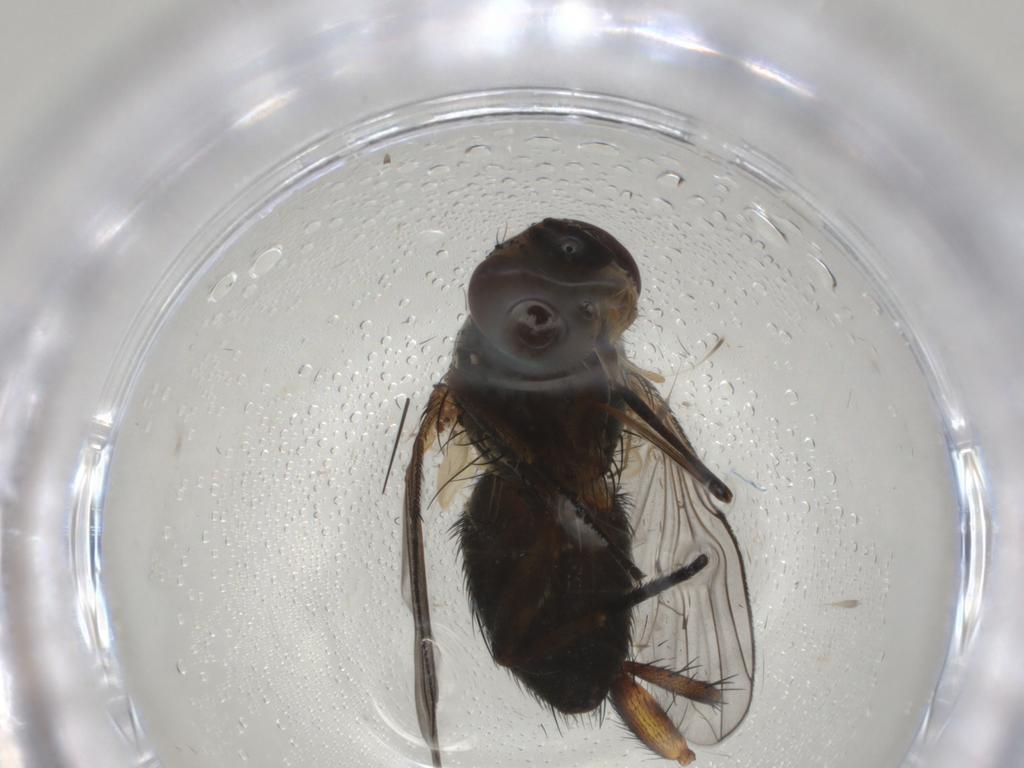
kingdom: Animalia
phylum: Arthropoda
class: Insecta
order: Diptera
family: Tachinidae
